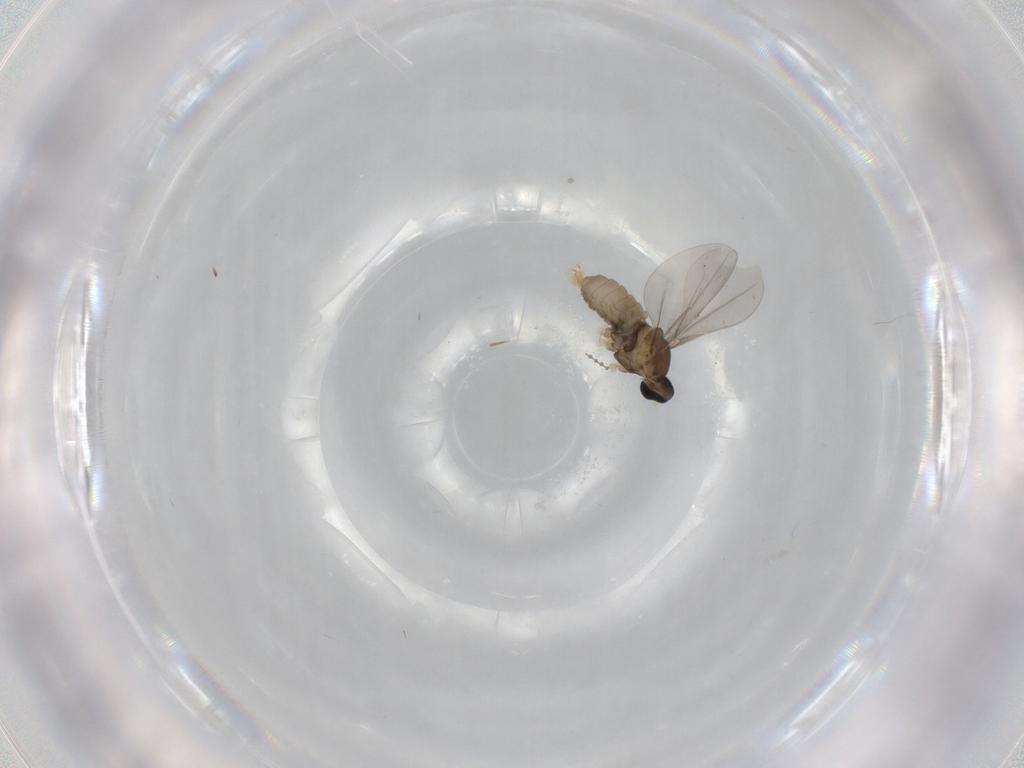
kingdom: Animalia
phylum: Arthropoda
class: Insecta
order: Diptera
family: Cecidomyiidae
